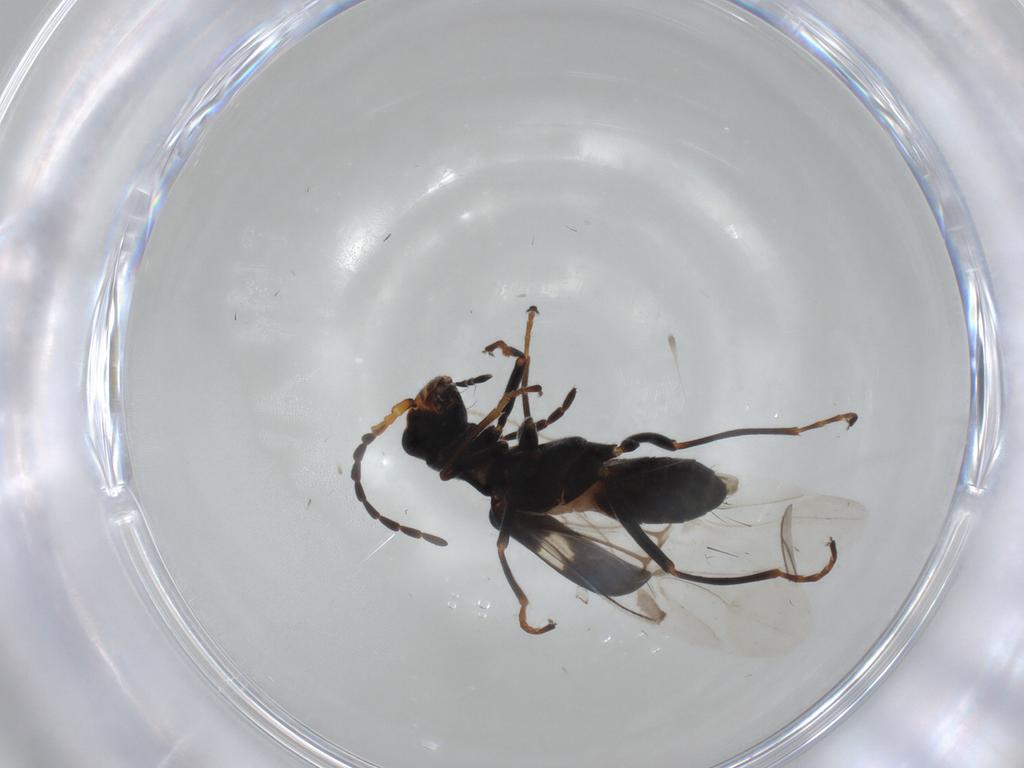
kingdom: Animalia
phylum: Arthropoda
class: Insecta
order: Coleoptera
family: Melyridae
